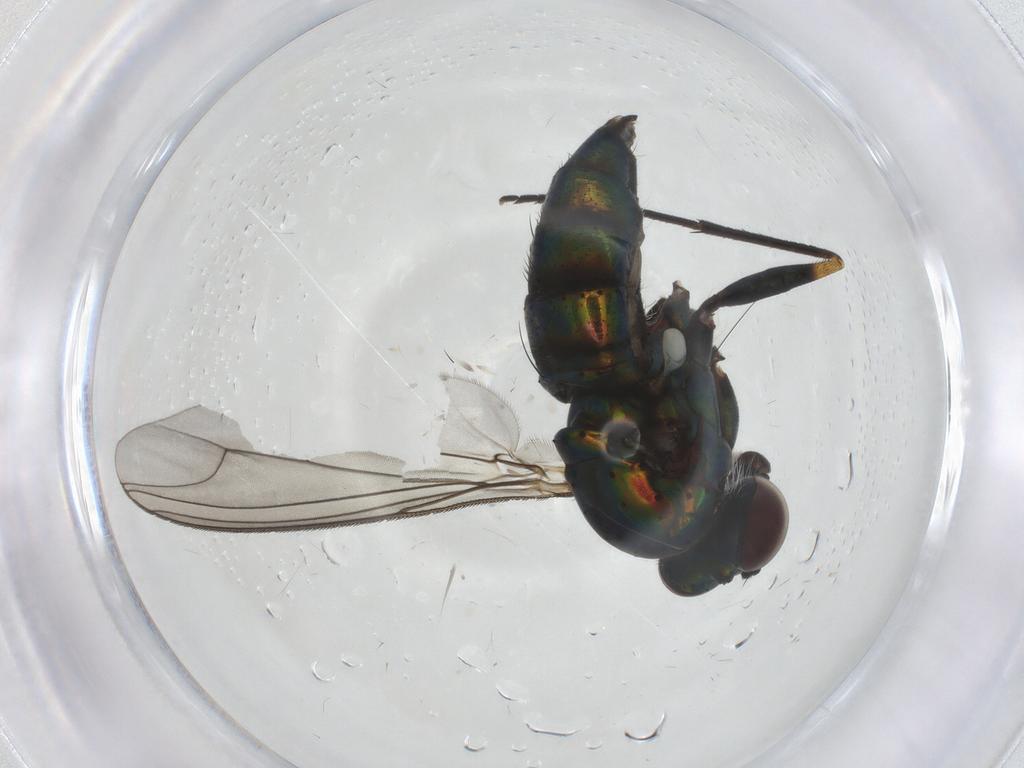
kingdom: Animalia
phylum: Arthropoda
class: Insecta
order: Diptera
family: Dolichopodidae
